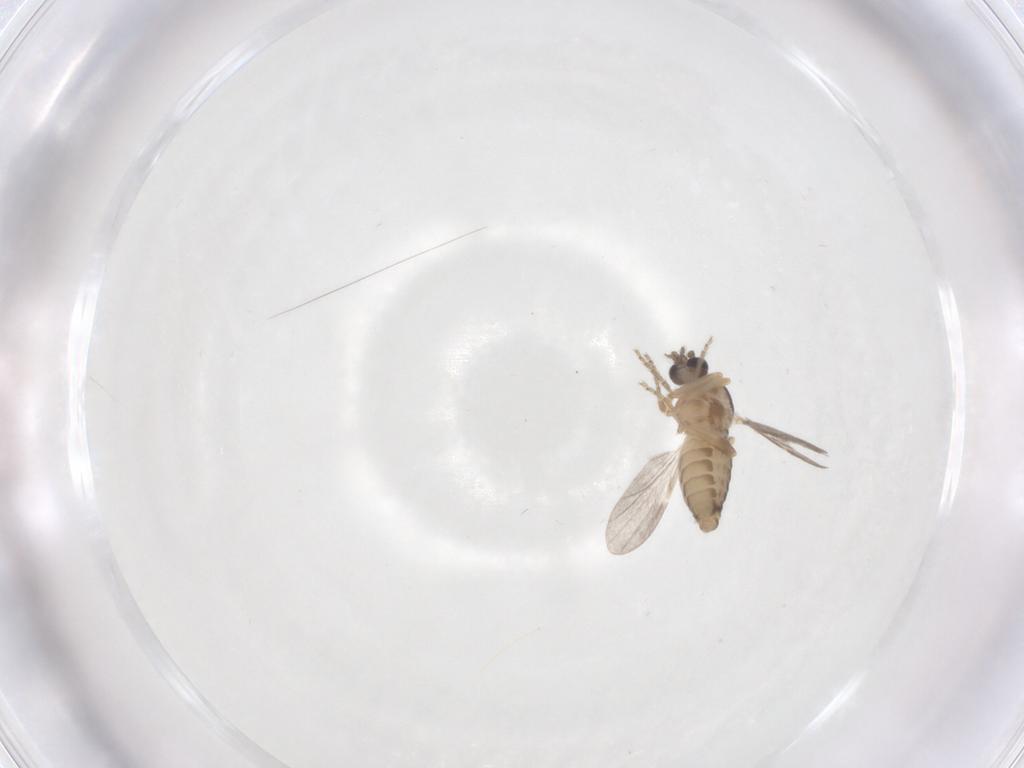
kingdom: Animalia
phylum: Arthropoda
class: Insecta
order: Diptera
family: Ceratopogonidae
